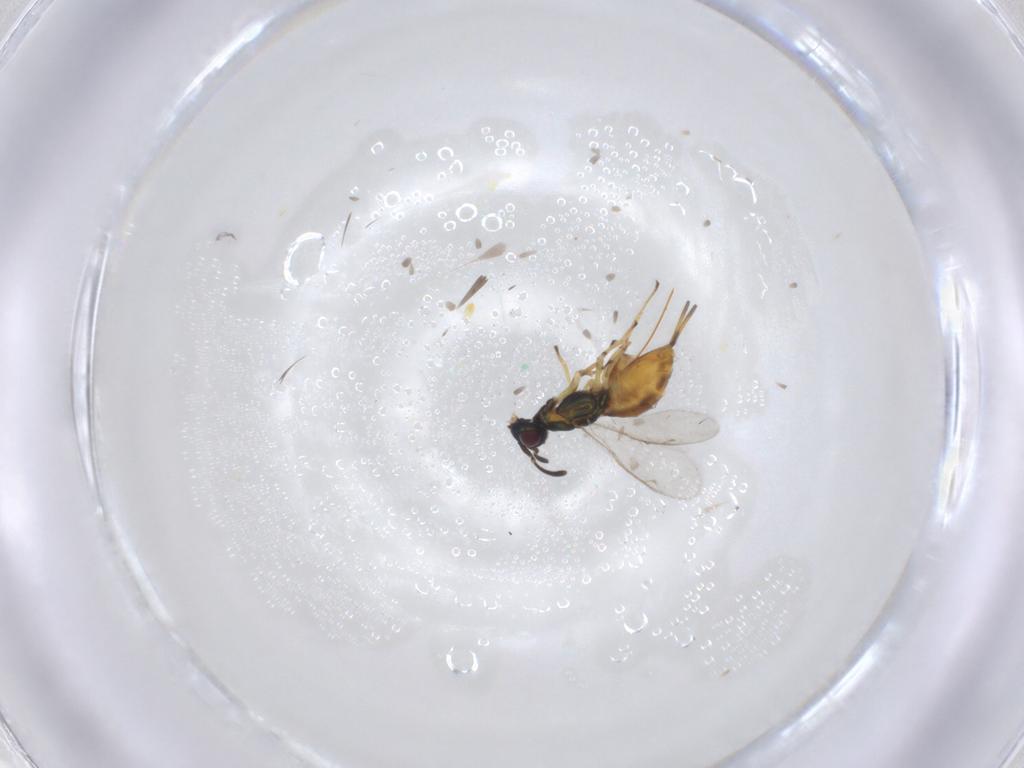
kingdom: Animalia
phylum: Arthropoda
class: Insecta
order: Hymenoptera
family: Eupelmidae
